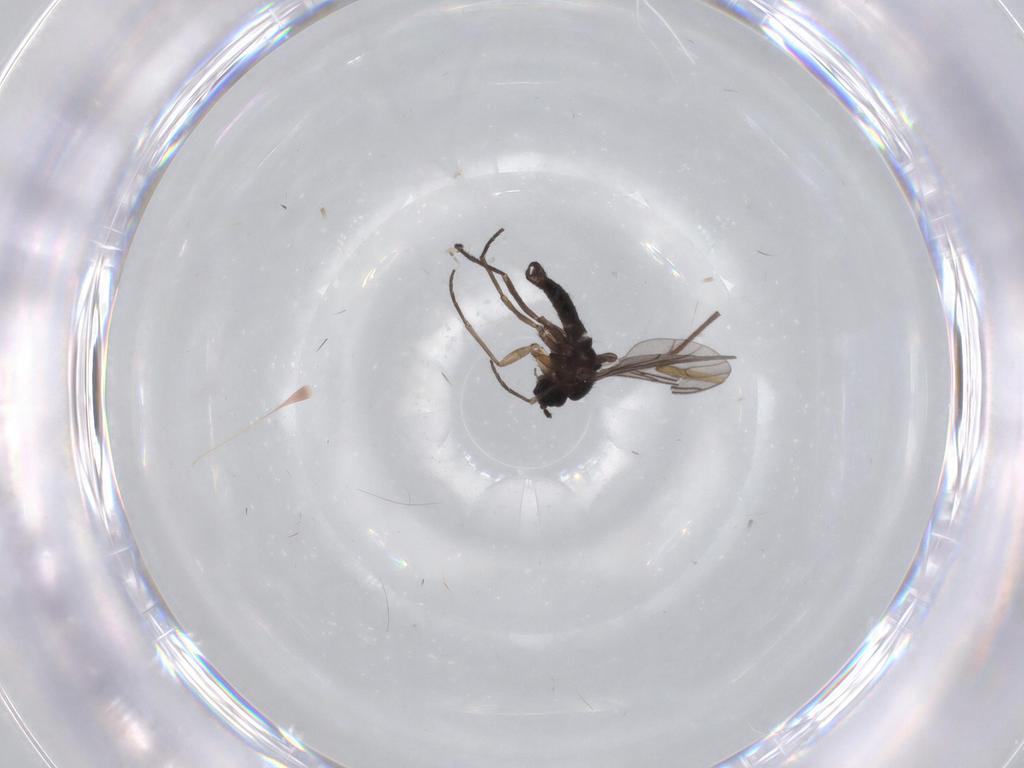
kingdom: Animalia
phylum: Arthropoda
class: Insecta
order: Diptera
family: Sciaridae
